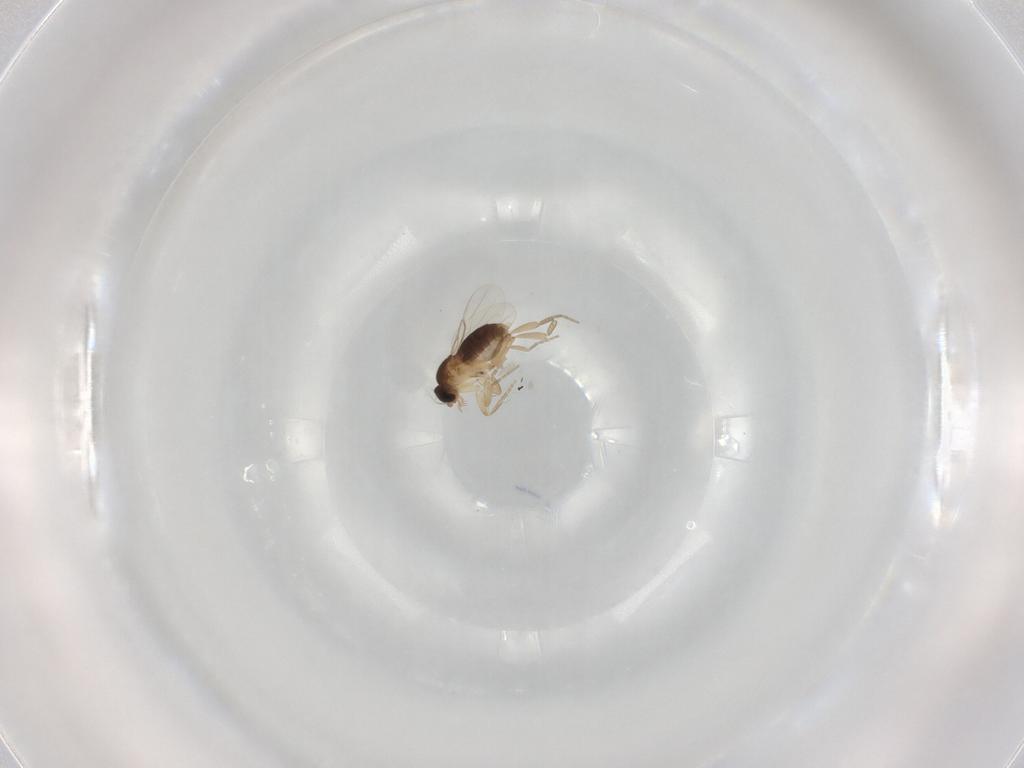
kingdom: Animalia
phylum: Arthropoda
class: Insecta
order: Diptera
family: Phoridae
